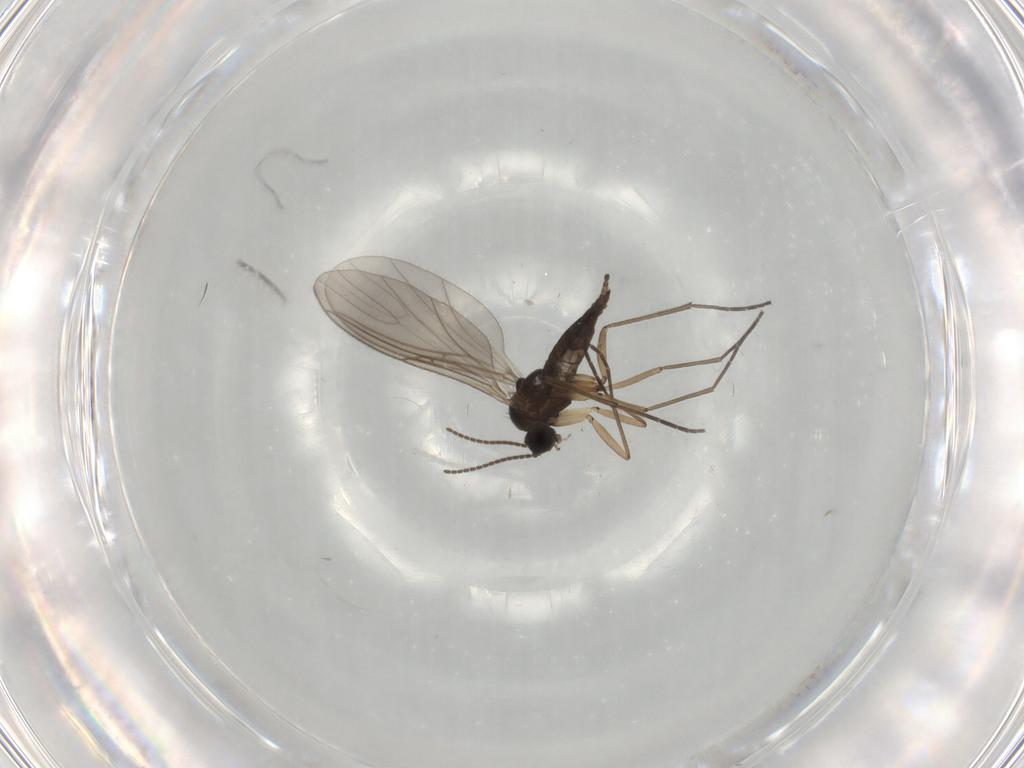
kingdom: Animalia
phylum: Arthropoda
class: Insecta
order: Diptera
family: Sciaridae
